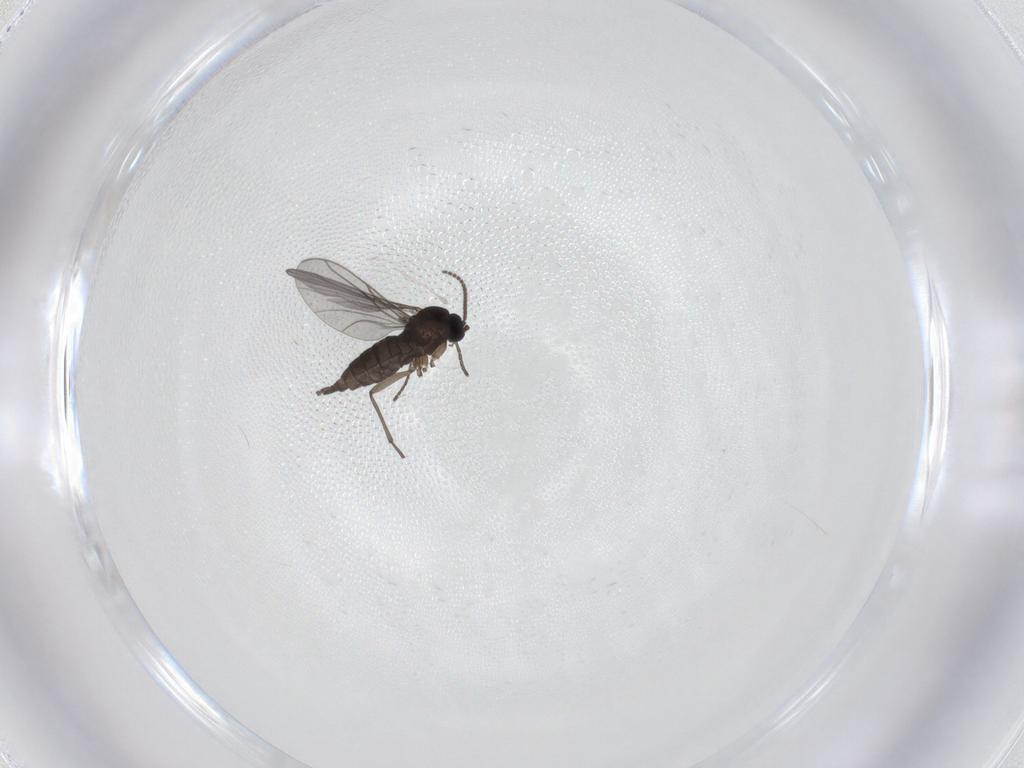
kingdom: Animalia
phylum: Arthropoda
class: Insecta
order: Diptera
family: Sciaridae
